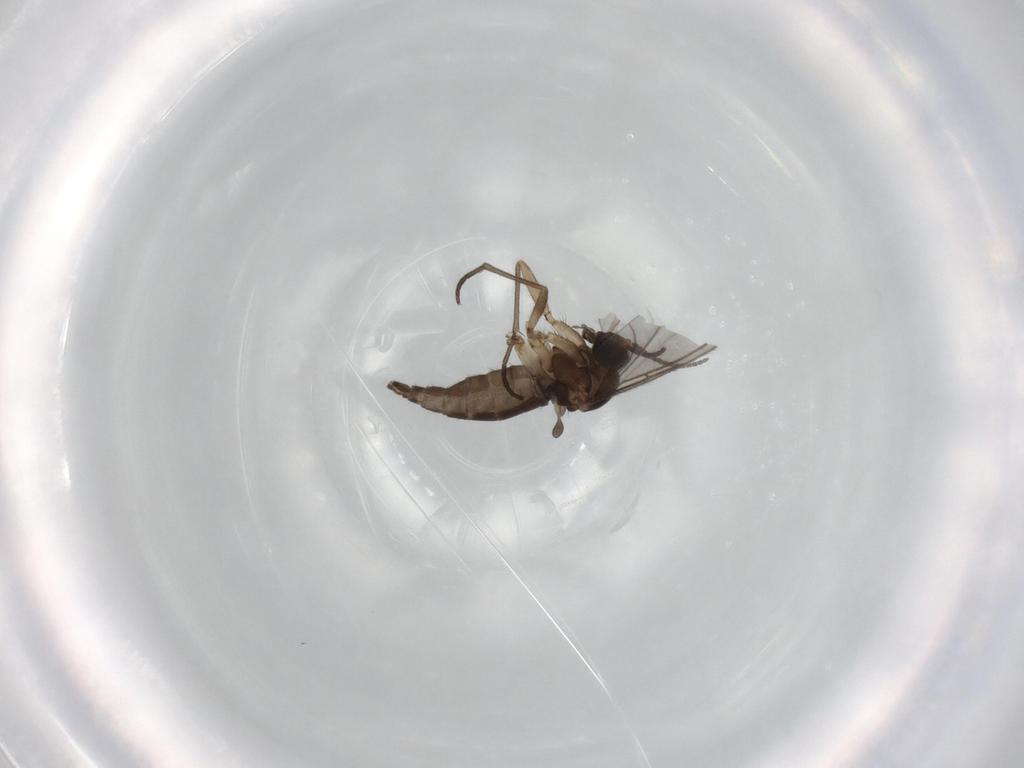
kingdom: Animalia
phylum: Arthropoda
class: Insecta
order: Diptera
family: Sciaridae
